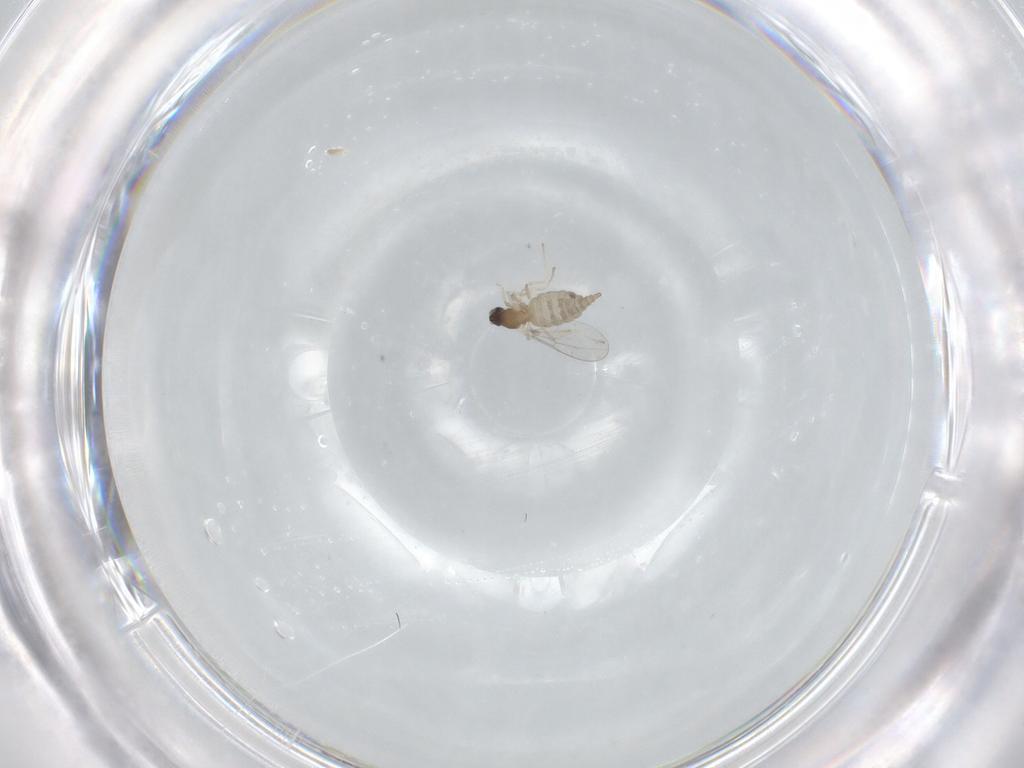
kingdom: Animalia
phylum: Arthropoda
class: Insecta
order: Diptera
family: Cecidomyiidae
